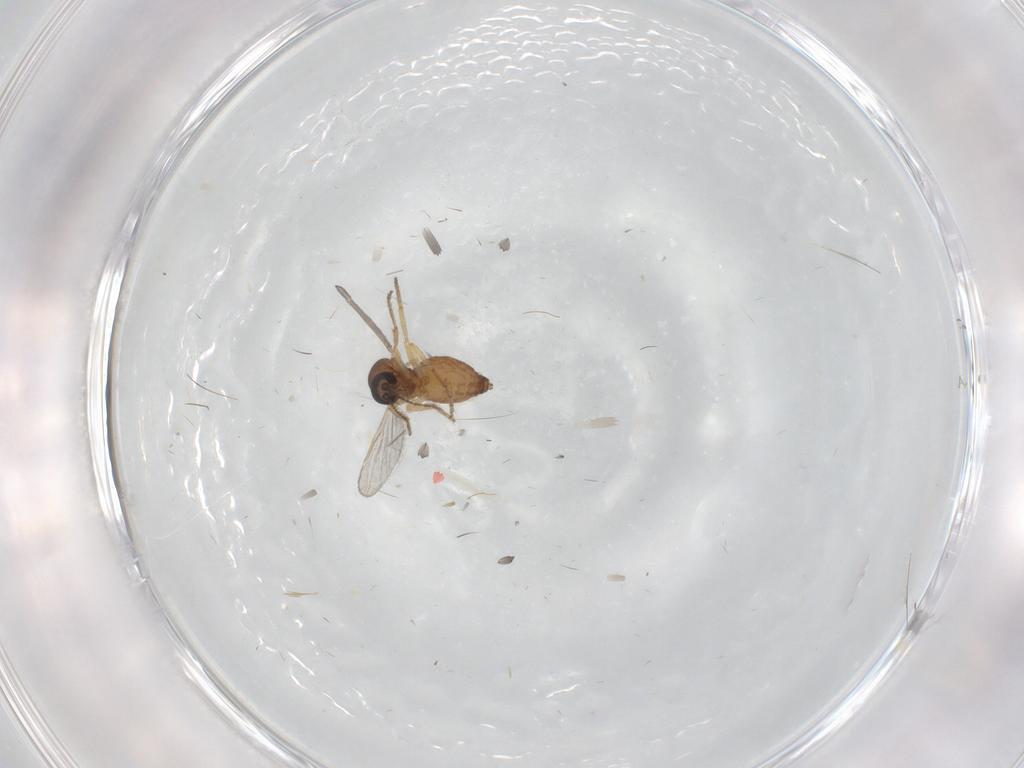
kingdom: Animalia
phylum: Arthropoda
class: Insecta
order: Diptera
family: Ceratopogonidae
